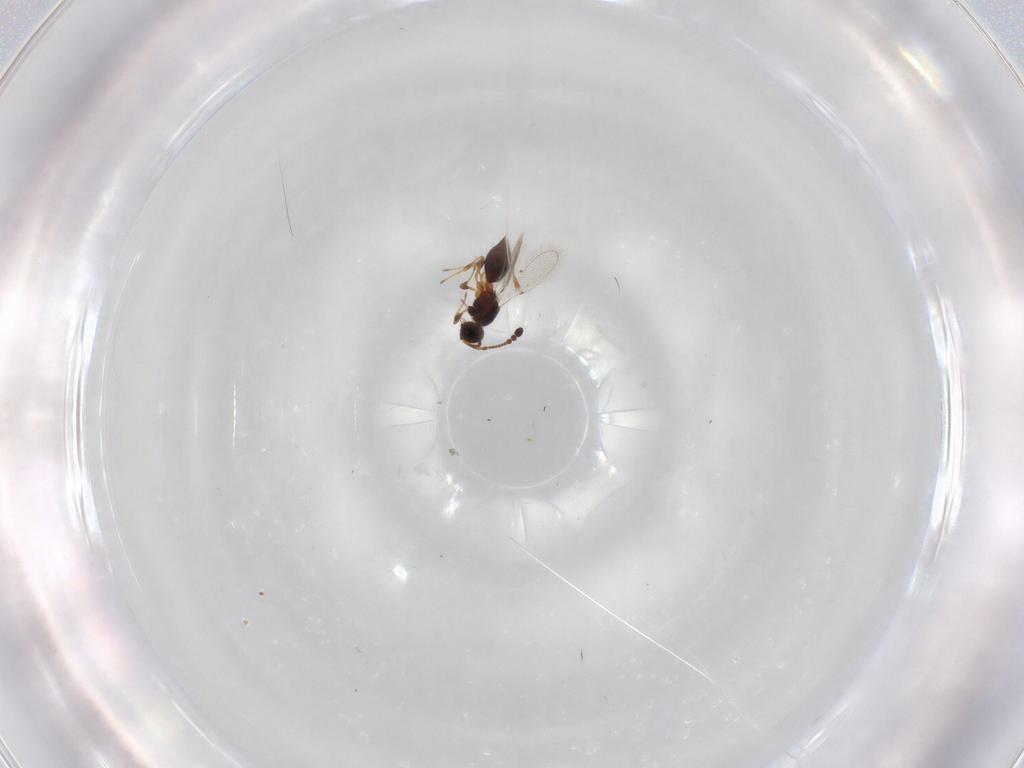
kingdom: Animalia
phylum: Arthropoda
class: Insecta
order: Hymenoptera
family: Diapriidae
